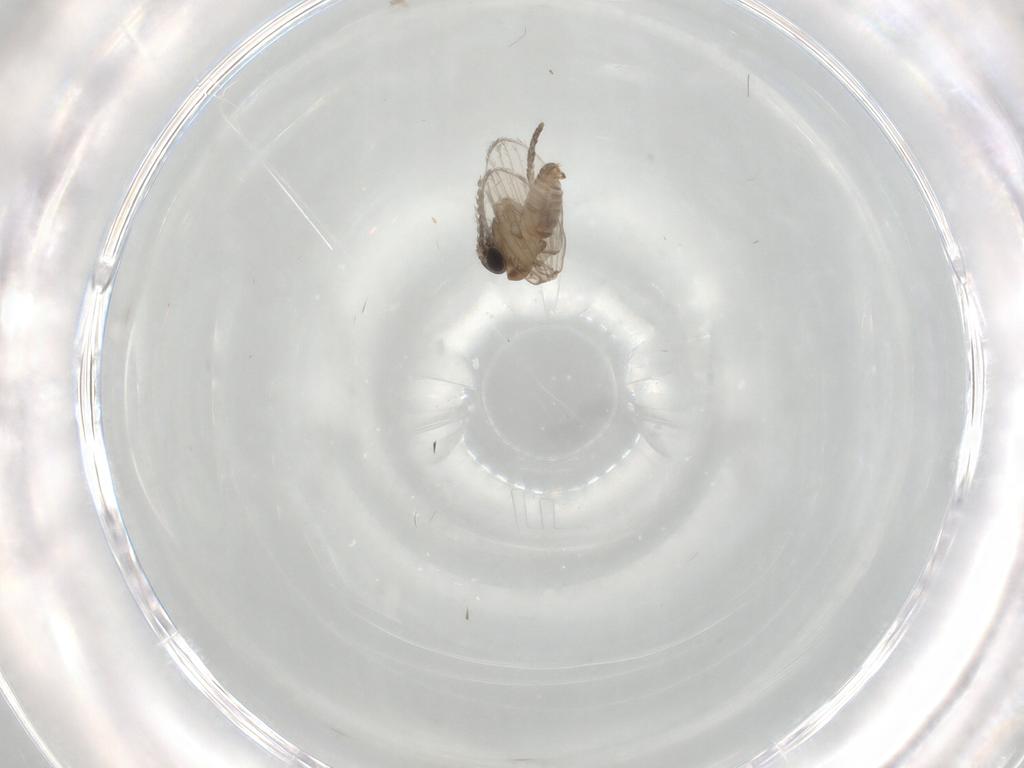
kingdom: Animalia
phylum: Arthropoda
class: Insecta
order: Diptera
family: Psychodidae
